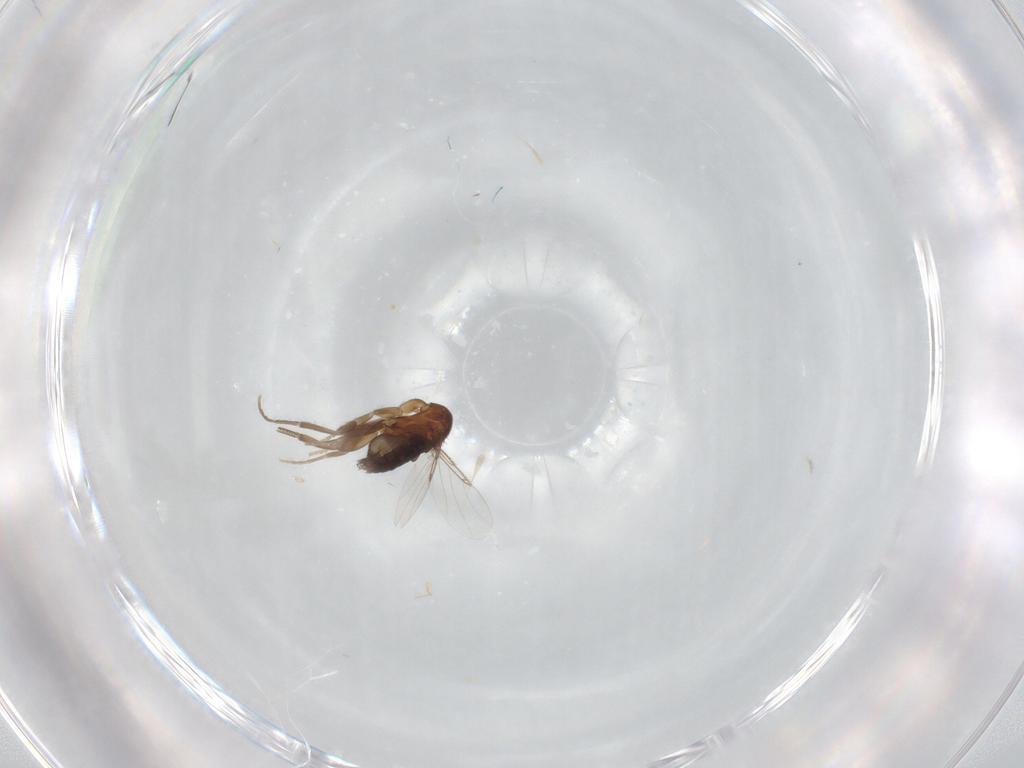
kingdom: Animalia
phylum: Arthropoda
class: Insecta
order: Diptera
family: Phoridae
